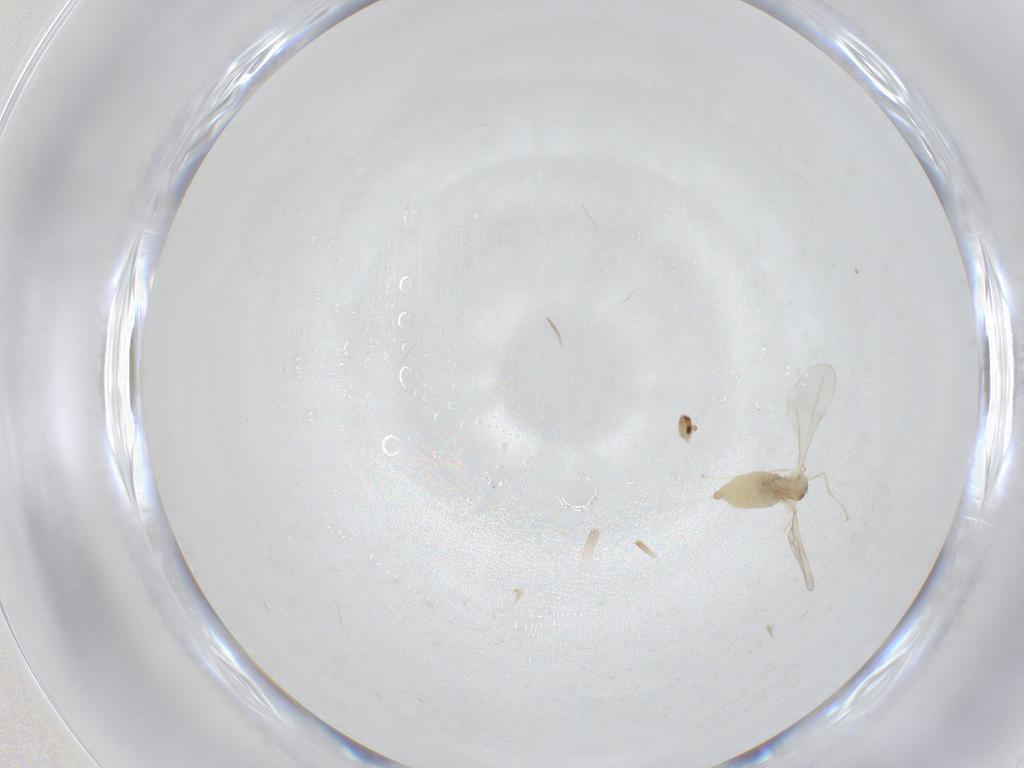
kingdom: Animalia
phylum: Arthropoda
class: Insecta
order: Diptera
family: Cecidomyiidae
